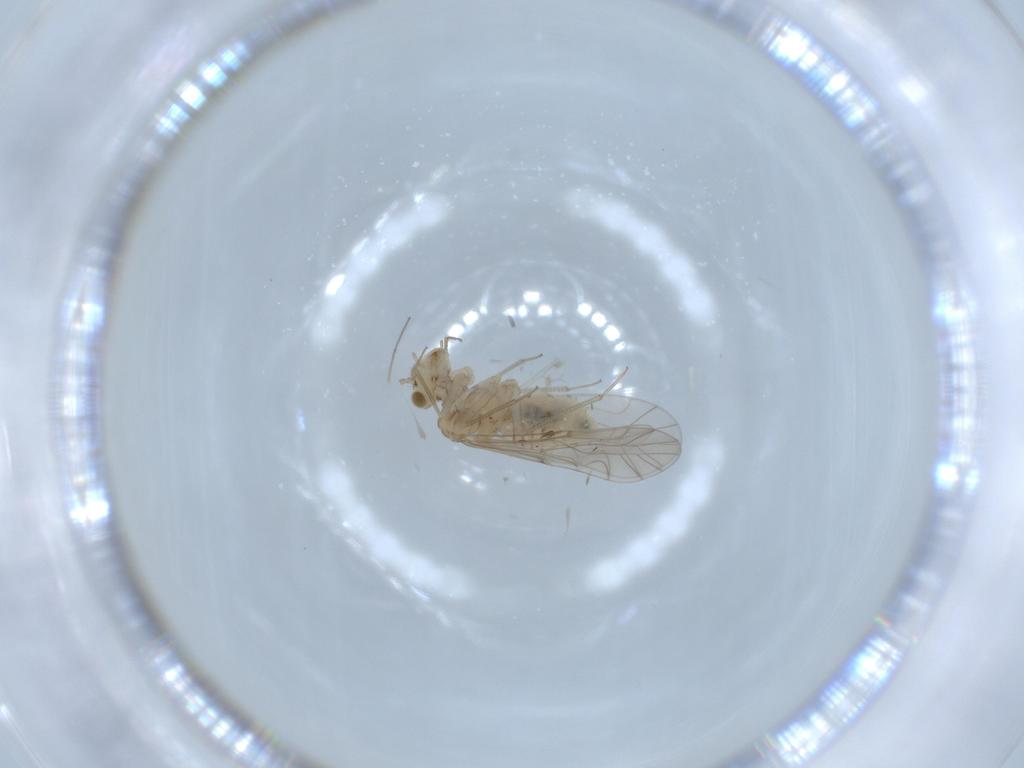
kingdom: Animalia
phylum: Arthropoda
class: Insecta
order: Psocodea
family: Lachesillidae
